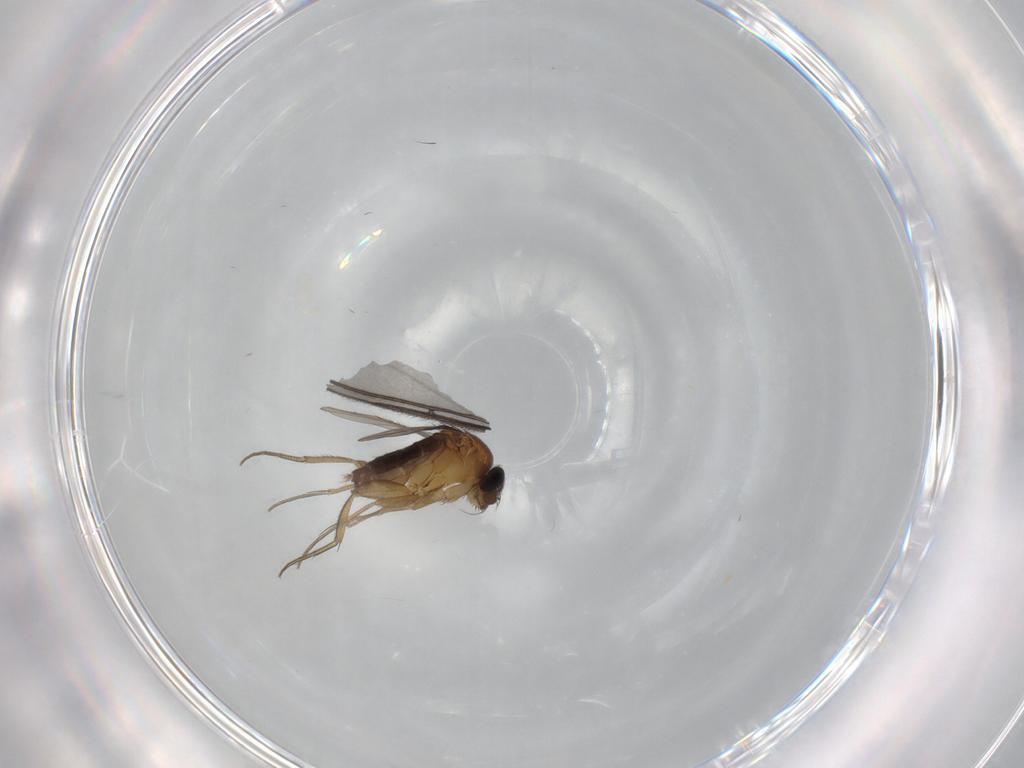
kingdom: Animalia
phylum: Arthropoda
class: Insecta
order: Diptera
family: Phoridae
